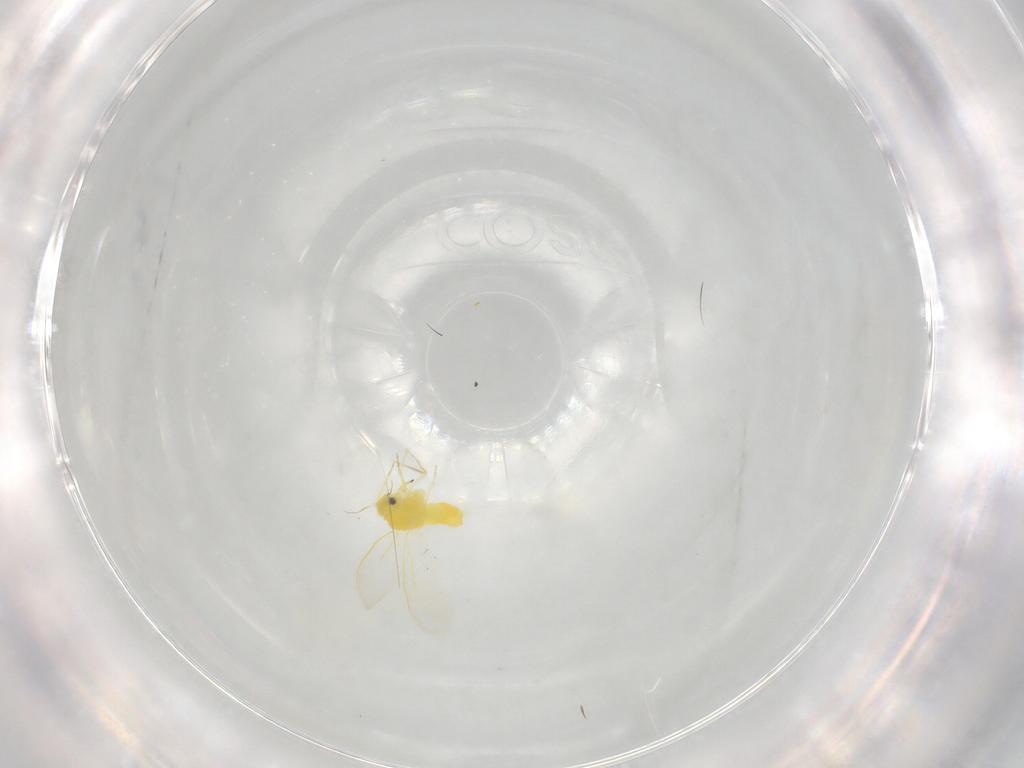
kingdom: Animalia
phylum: Arthropoda
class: Insecta
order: Hemiptera
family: Aleyrodidae
